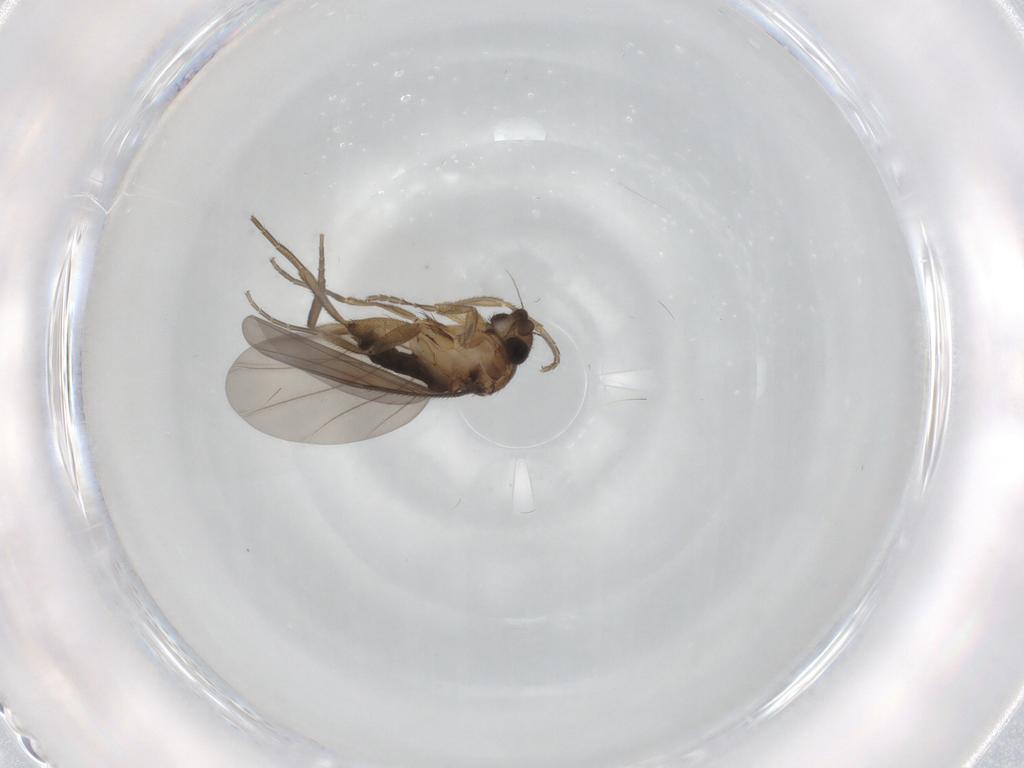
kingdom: Animalia
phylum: Arthropoda
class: Insecta
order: Diptera
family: Phoridae
